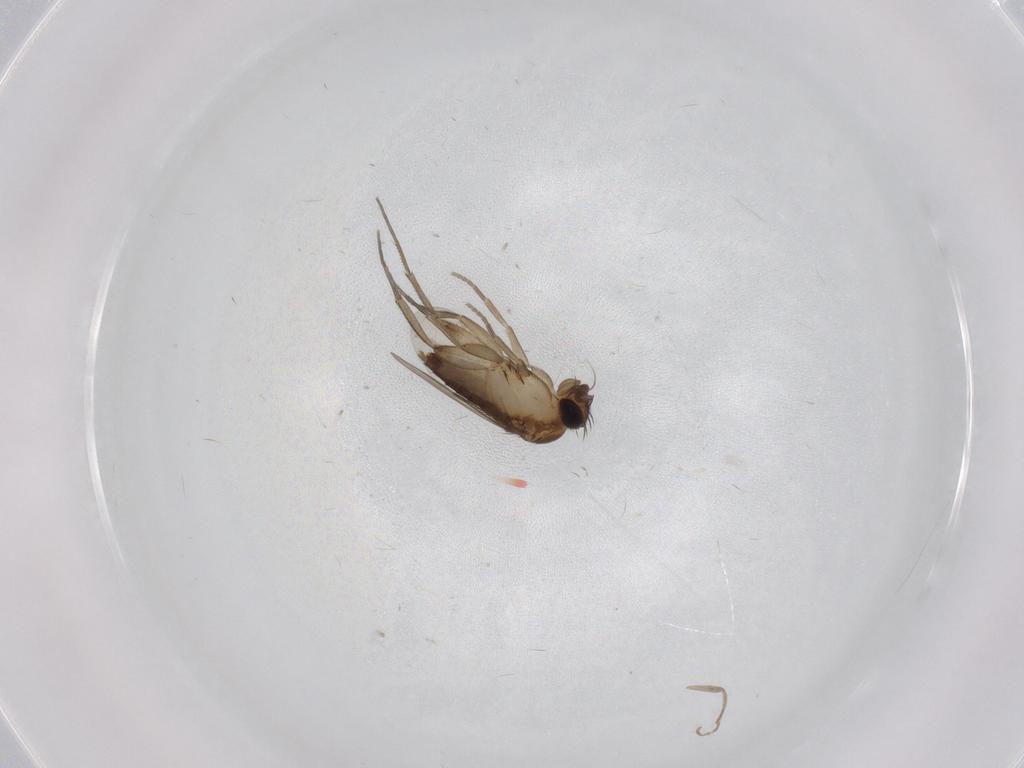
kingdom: Animalia
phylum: Arthropoda
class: Insecta
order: Diptera
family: Phoridae
